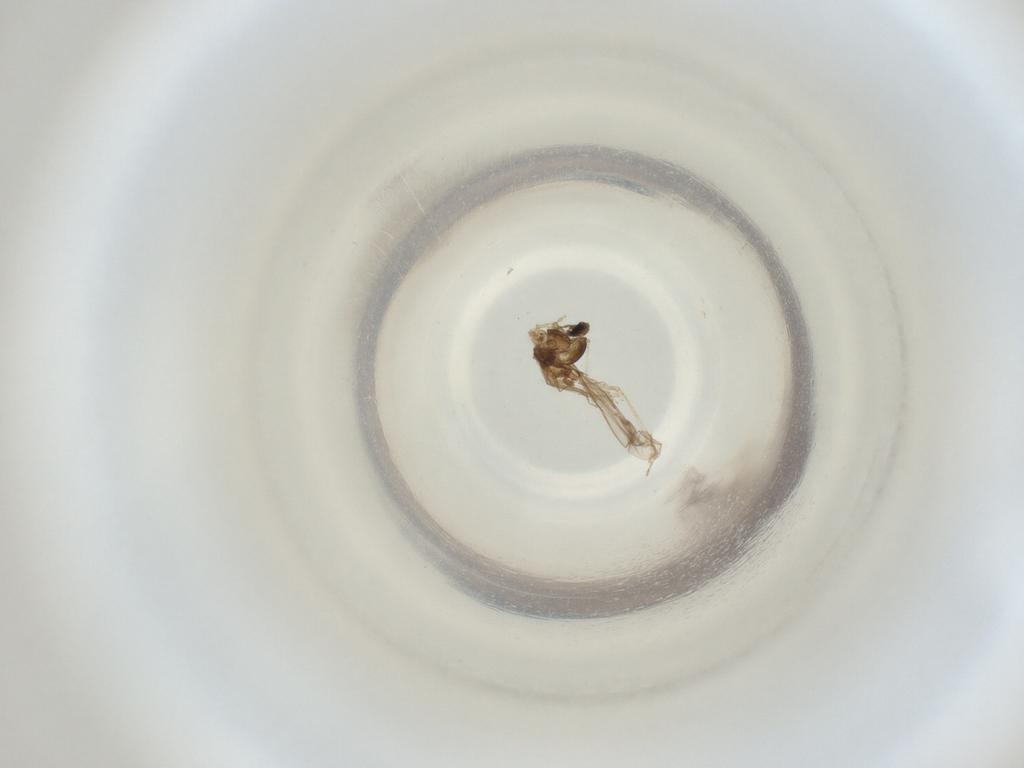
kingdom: Animalia
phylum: Arthropoda
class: Insecta
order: Diptera
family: Cecidomyiidae
